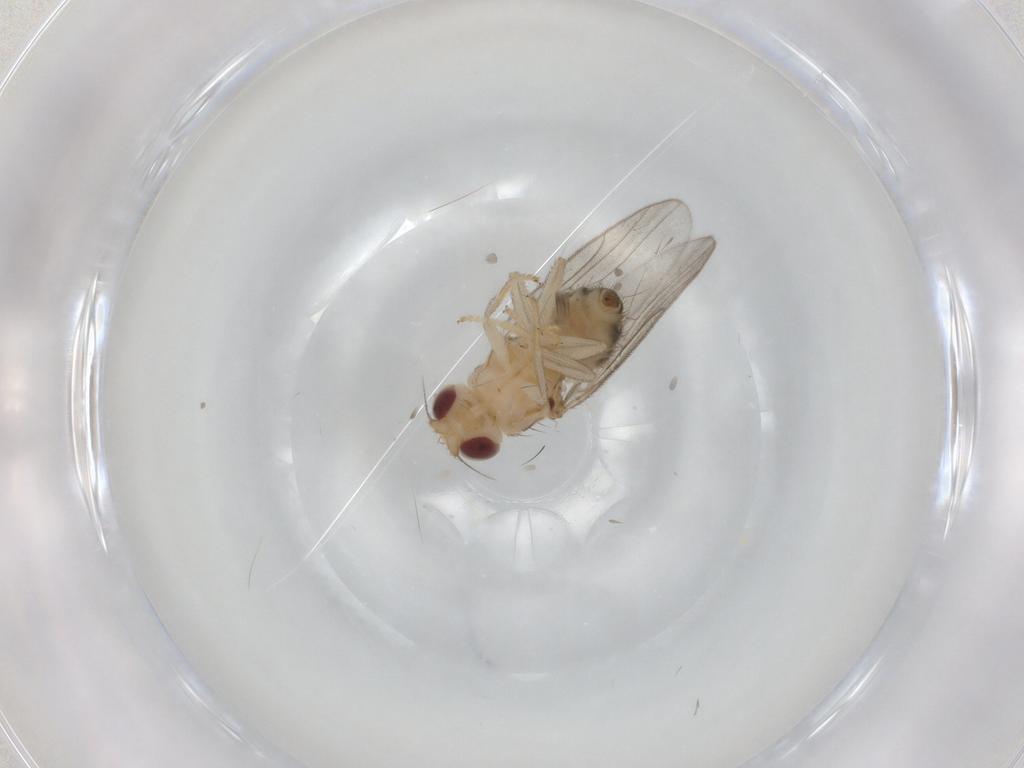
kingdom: Animalia
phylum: Arthropoda
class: Insecta
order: Diptera
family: Chloropidae
